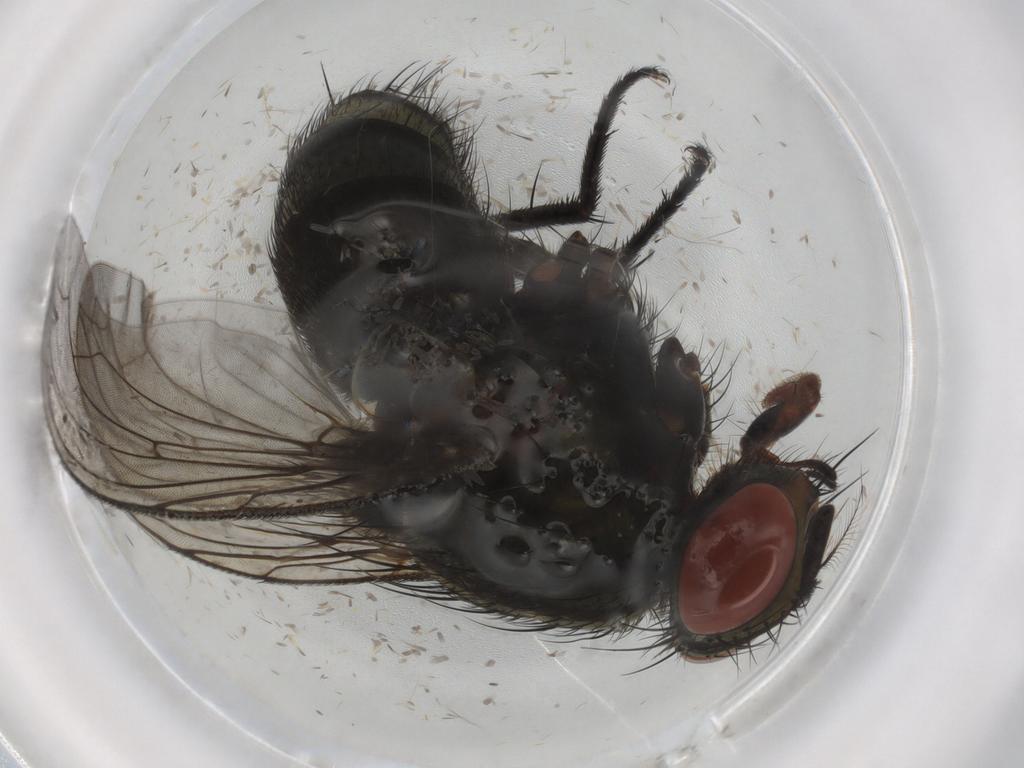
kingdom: Animalia
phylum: Arthropoda
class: Insecta
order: Diptera
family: Sarcophagidae
